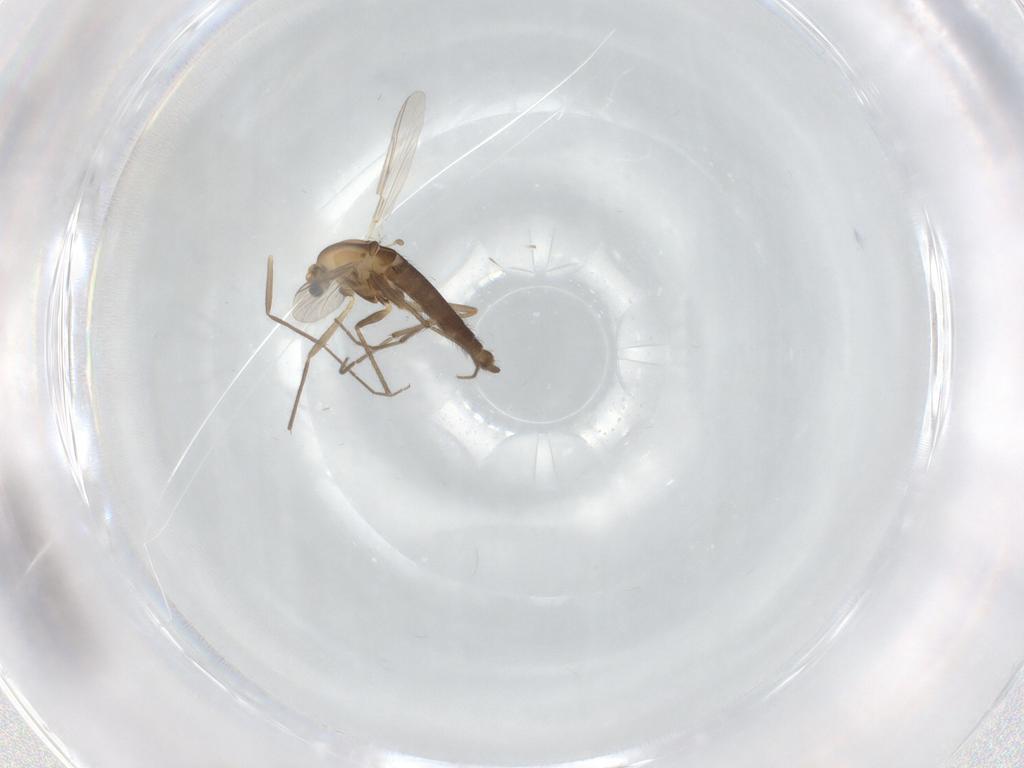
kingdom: Animalia
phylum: Arthropoda
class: Insecta
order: Diptera
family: Chironomidae
